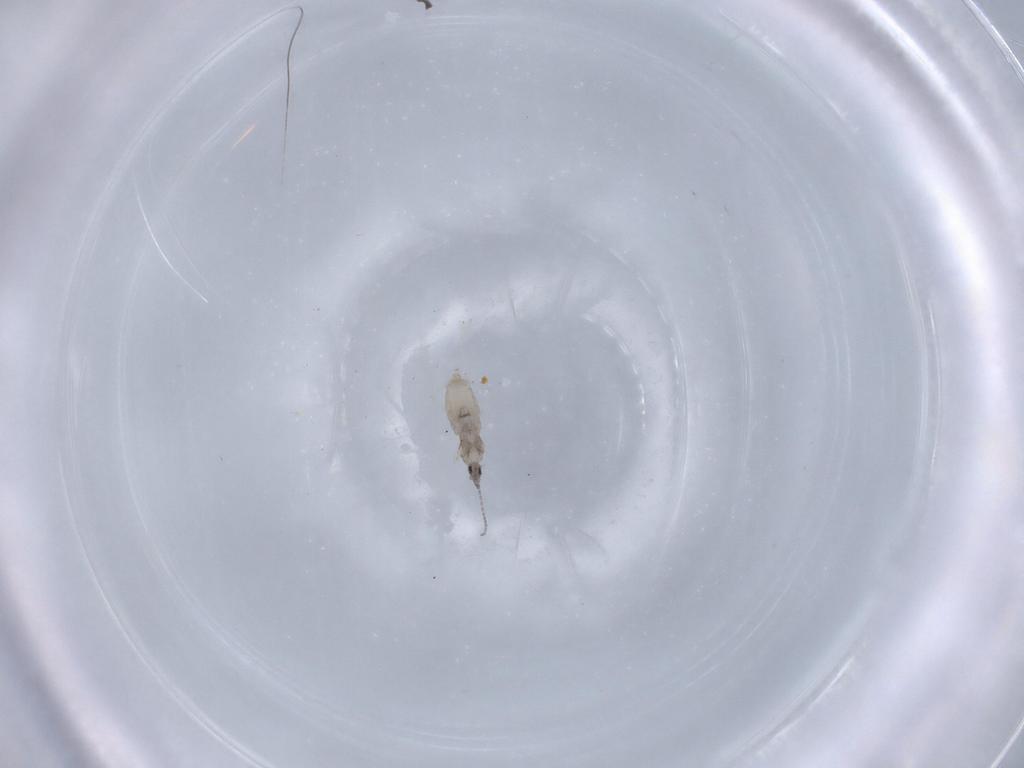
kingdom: Animalia
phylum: Arthropoda
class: Insecta
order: Diptera
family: Cecidomyiidae
